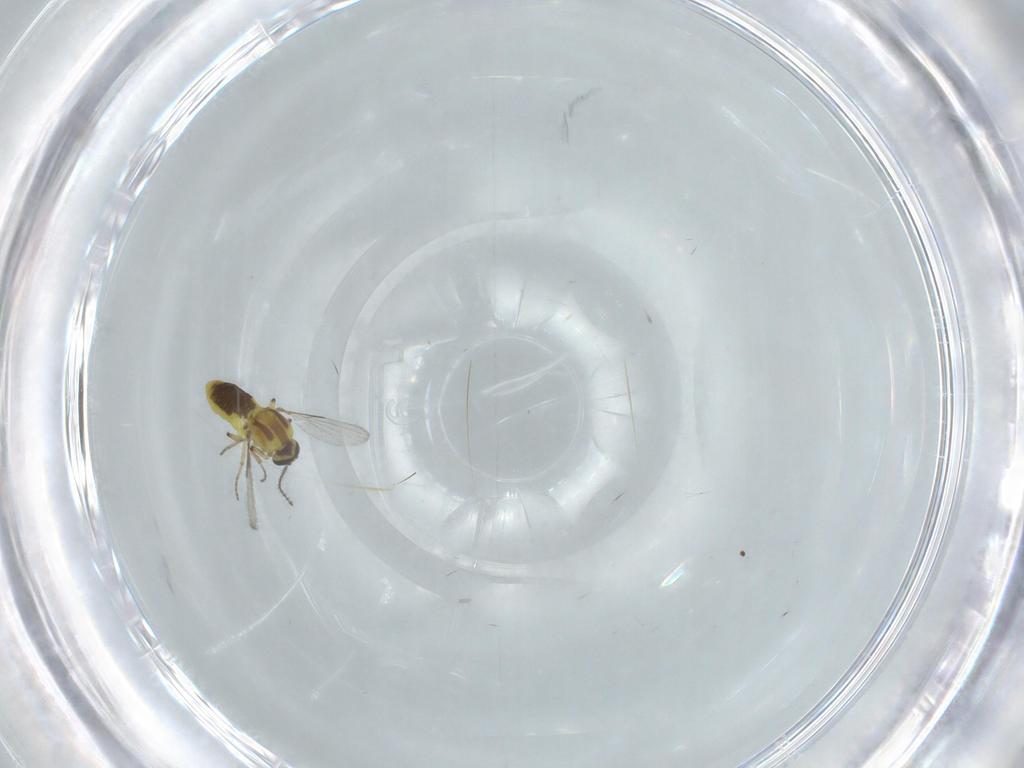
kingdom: Animalia
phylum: Arthropoda
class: Insecta
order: Diptera
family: Ceratopogonidae
